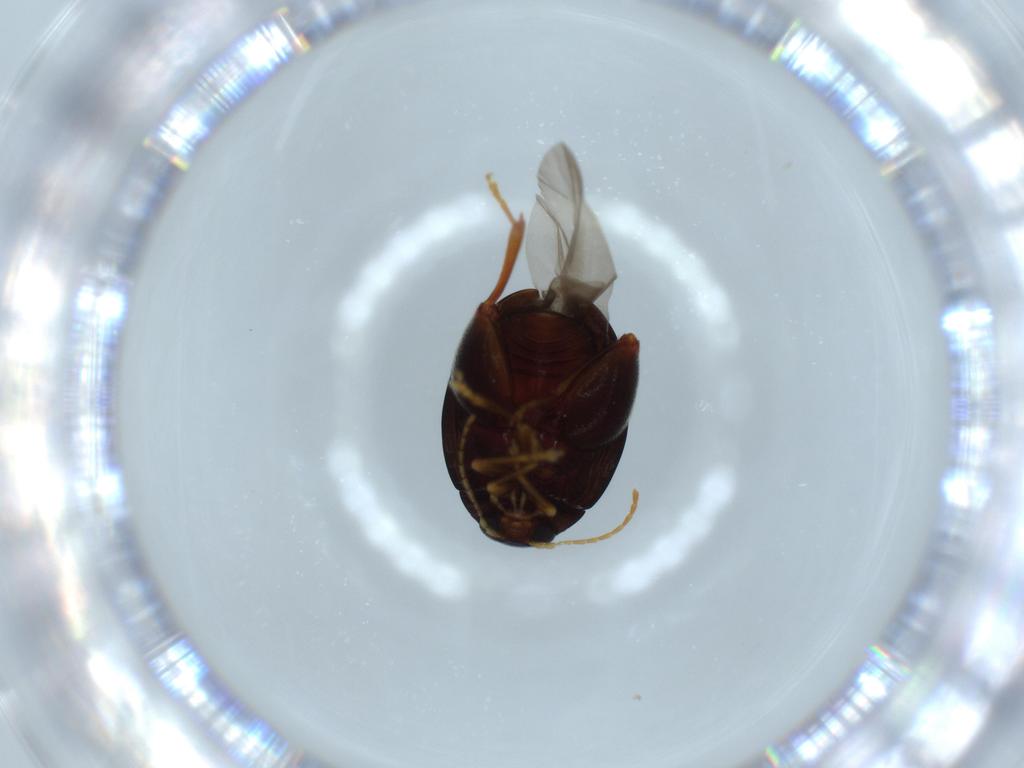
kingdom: Animalia
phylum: Arthropoda
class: Insecta
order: Coleoptera
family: Chrysomelidae
